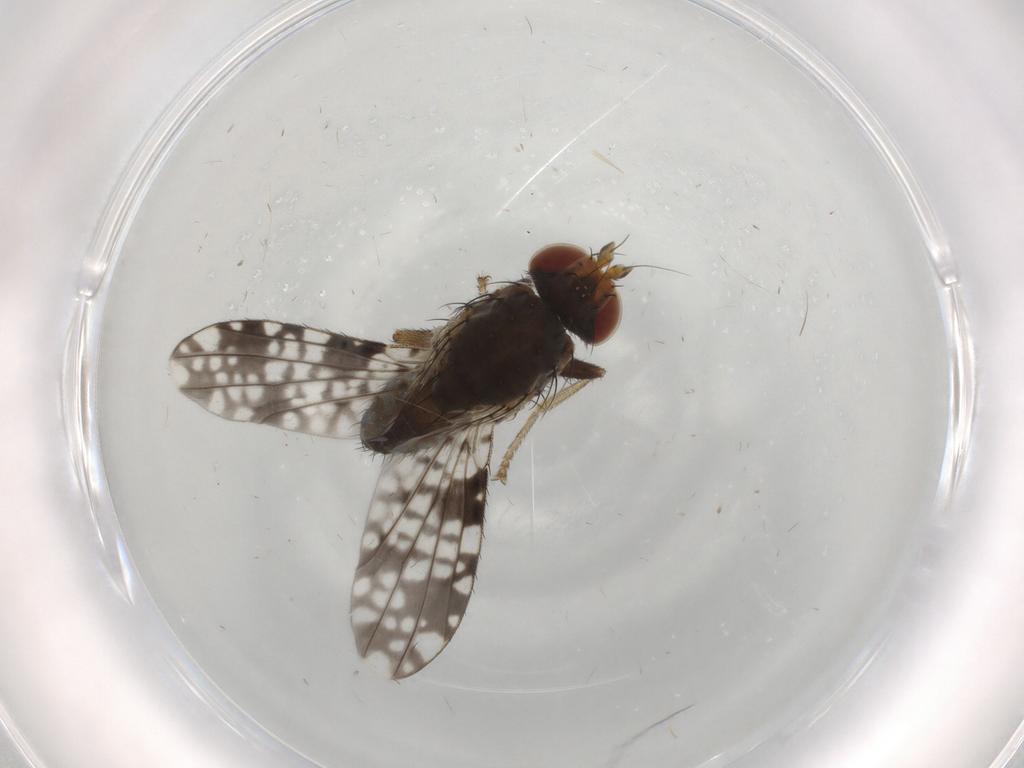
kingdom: Animalia
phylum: Arthropoda
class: Insecta
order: Diptera
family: Tephritidae
